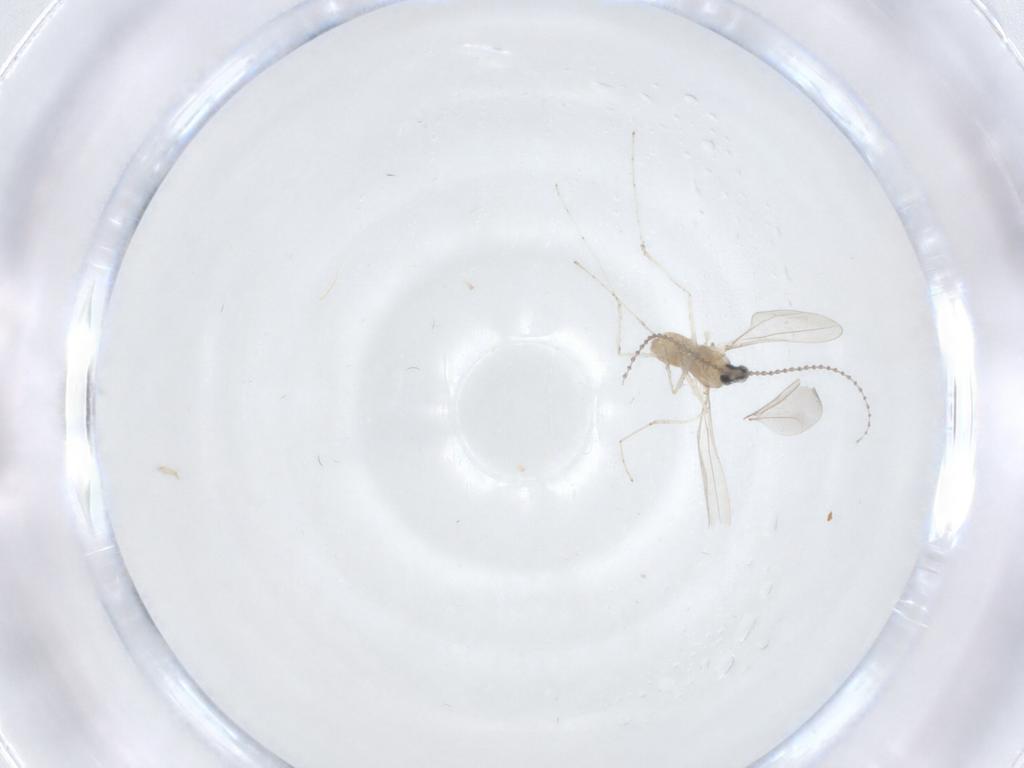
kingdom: Animalia
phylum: Arthropoda
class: Insecta
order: Diptera
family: Cecidomyiidae
